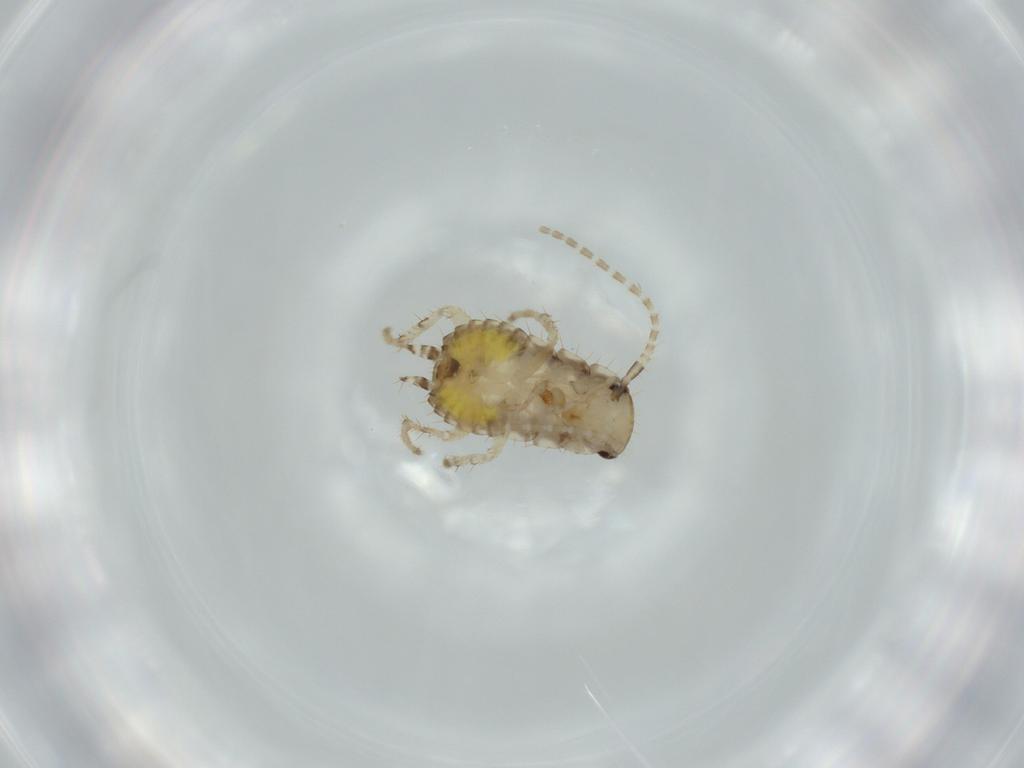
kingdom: Animalia
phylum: Arthropoda
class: Insecta
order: Blattodea
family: Ectobiidae
